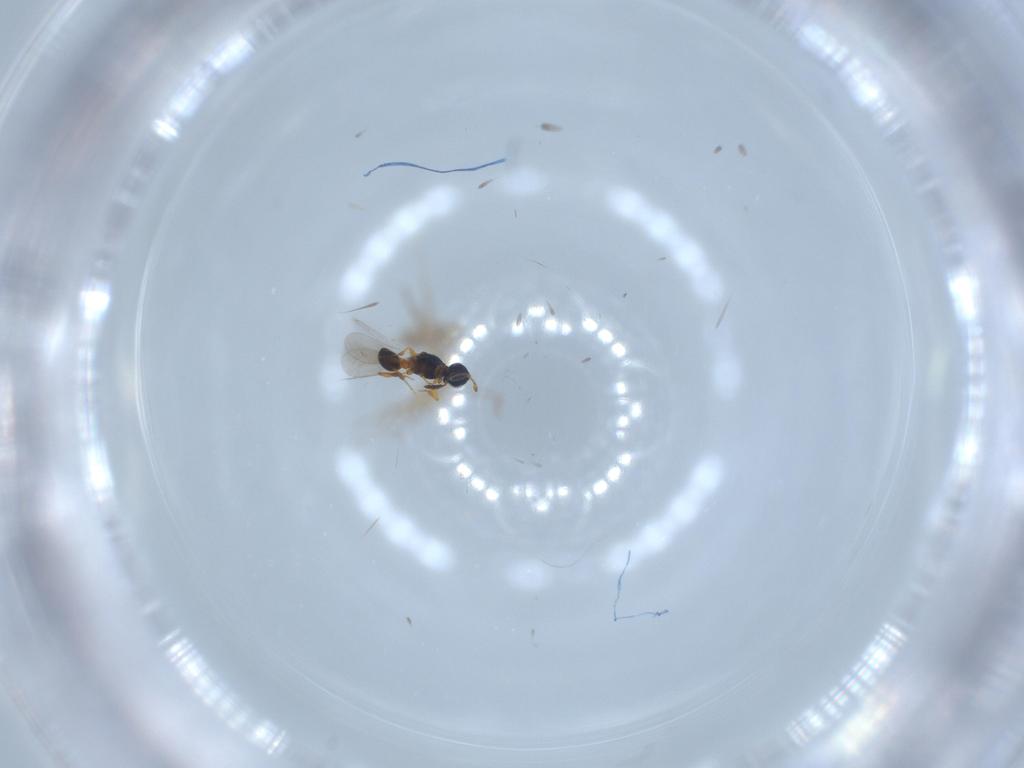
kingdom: Animalia
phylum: Arthropoda
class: Insecta
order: Hymenoptera
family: Platygastridae
